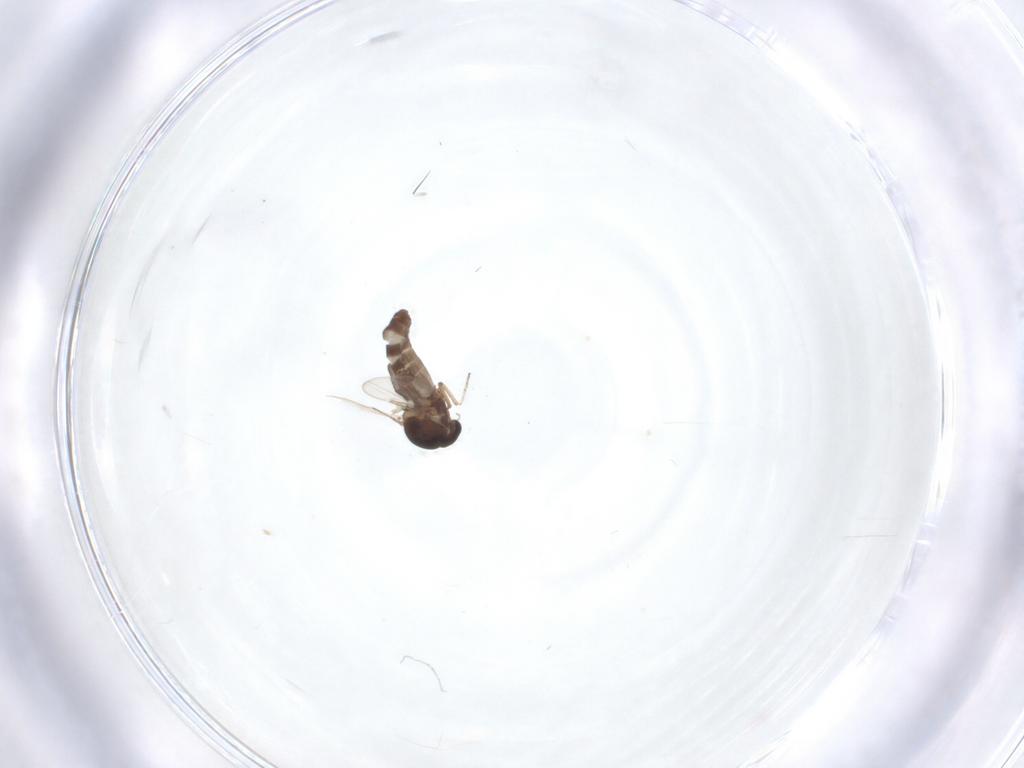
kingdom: Animalia
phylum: Arthropoda
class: Insecta
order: Diptera
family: Ceratopogonidae
